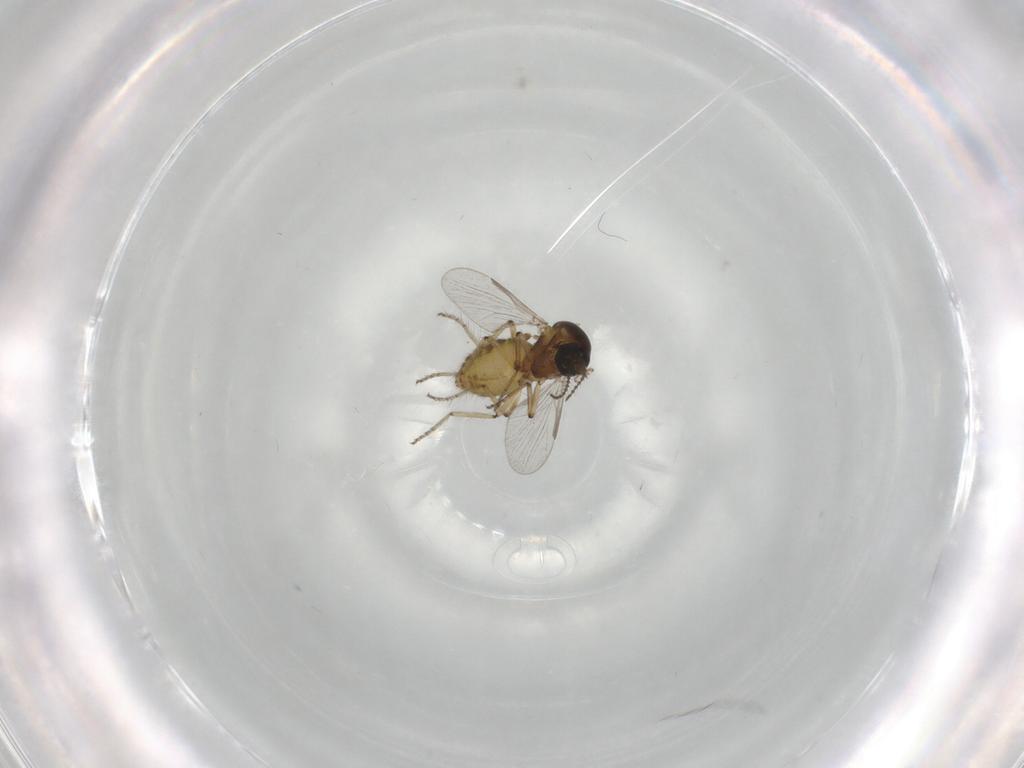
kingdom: Animalia
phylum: Arthropoda
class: Insecta
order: Diptera
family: Ceratopogonidae
